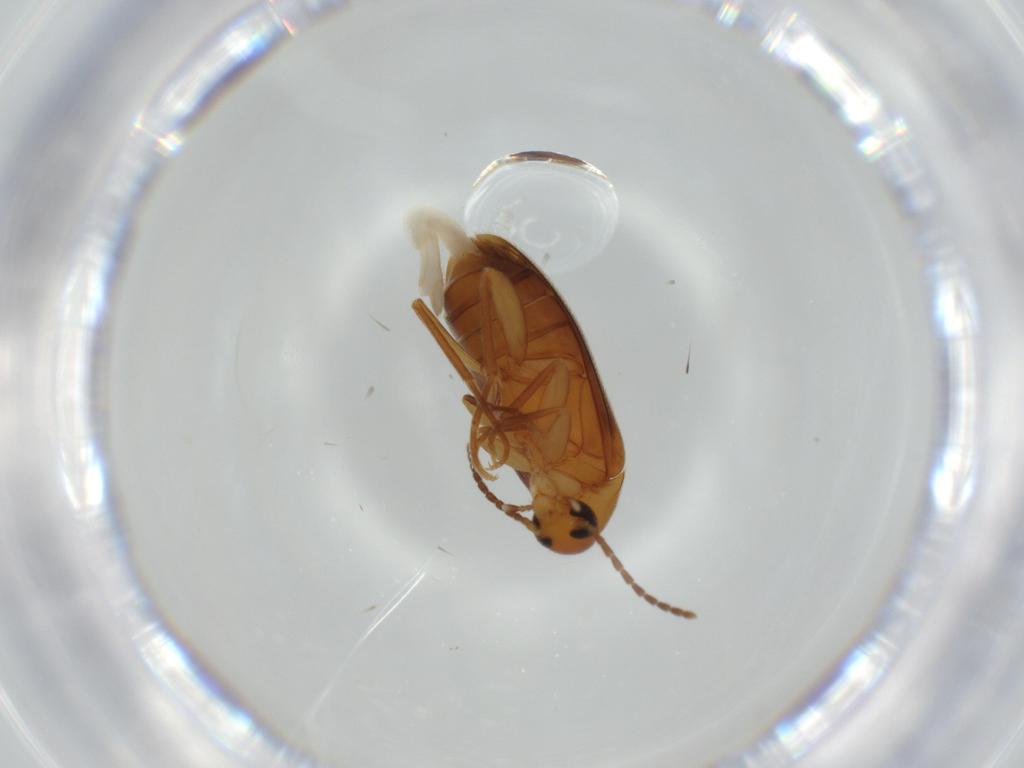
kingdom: Animalia
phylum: Arthropoda
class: Insecta
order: Coleoptera
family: Scraptiidae
